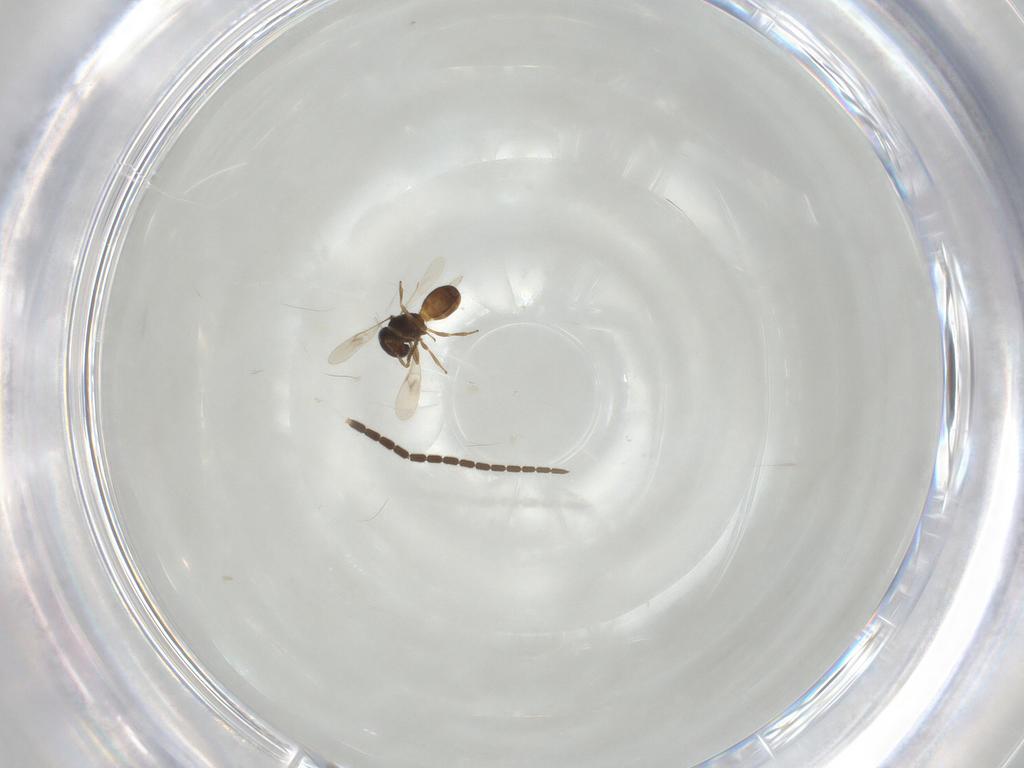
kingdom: Animalia
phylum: Arthropoda
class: Insecta
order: Hymenoptera
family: Scelionidae
